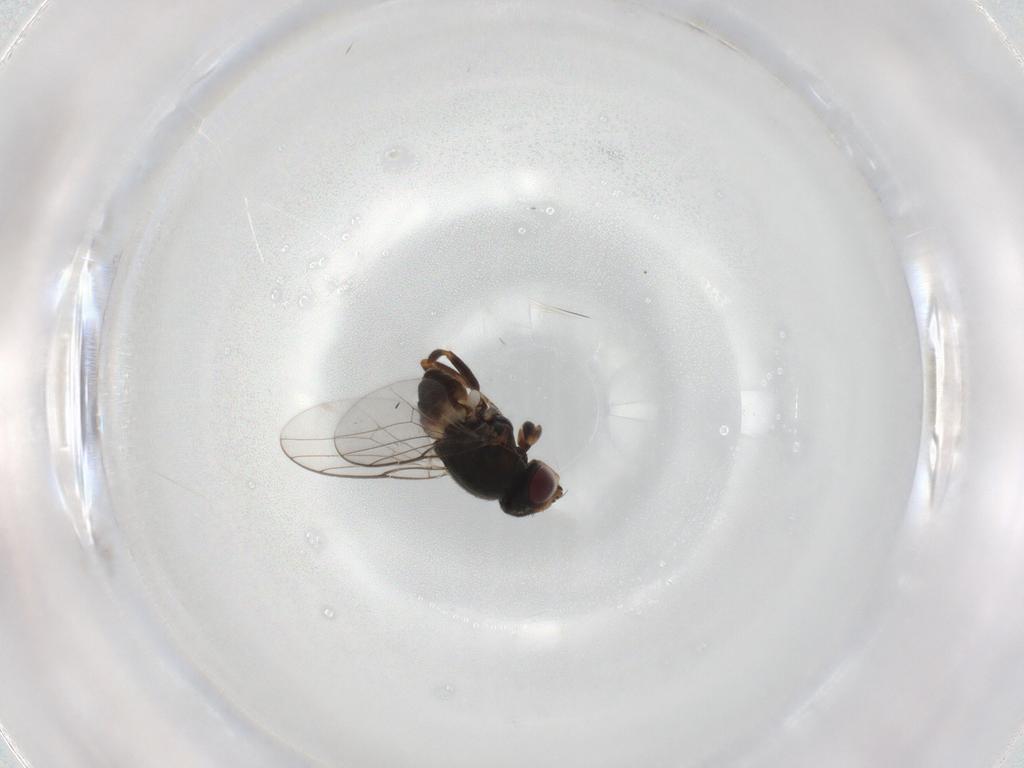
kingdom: Animalia
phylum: Arthropoda
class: Insecta
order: Diptera
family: Chloropidae
